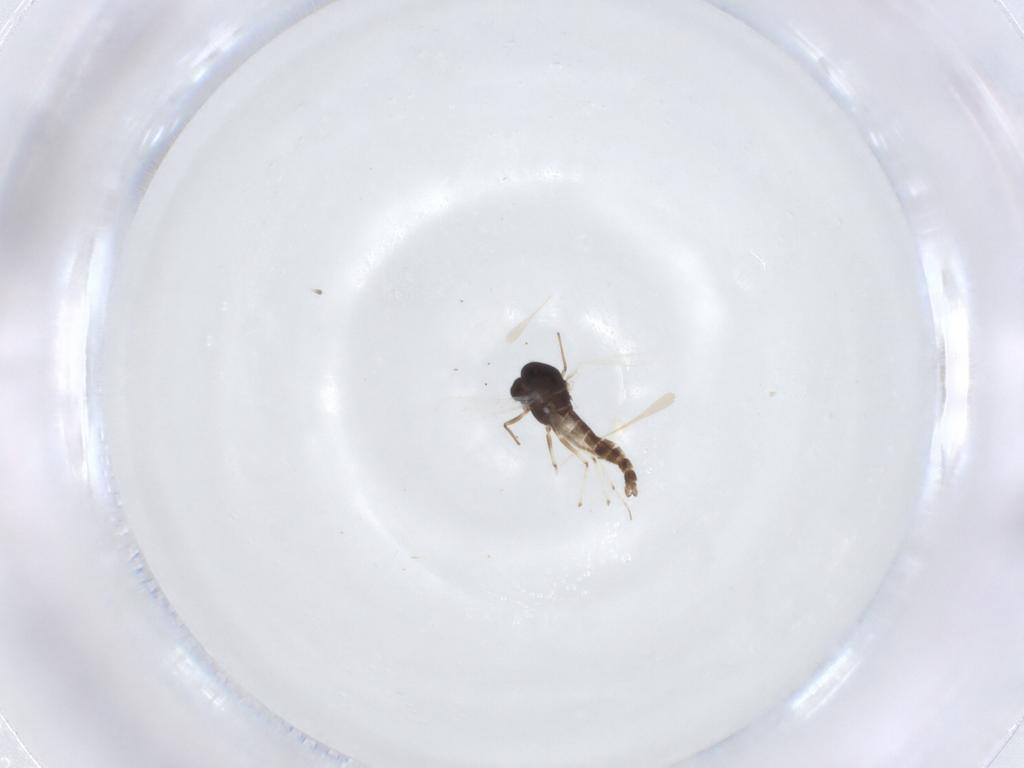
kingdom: Animalia
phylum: Arthropoda
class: Insecta
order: Diptera
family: Chironomidae
